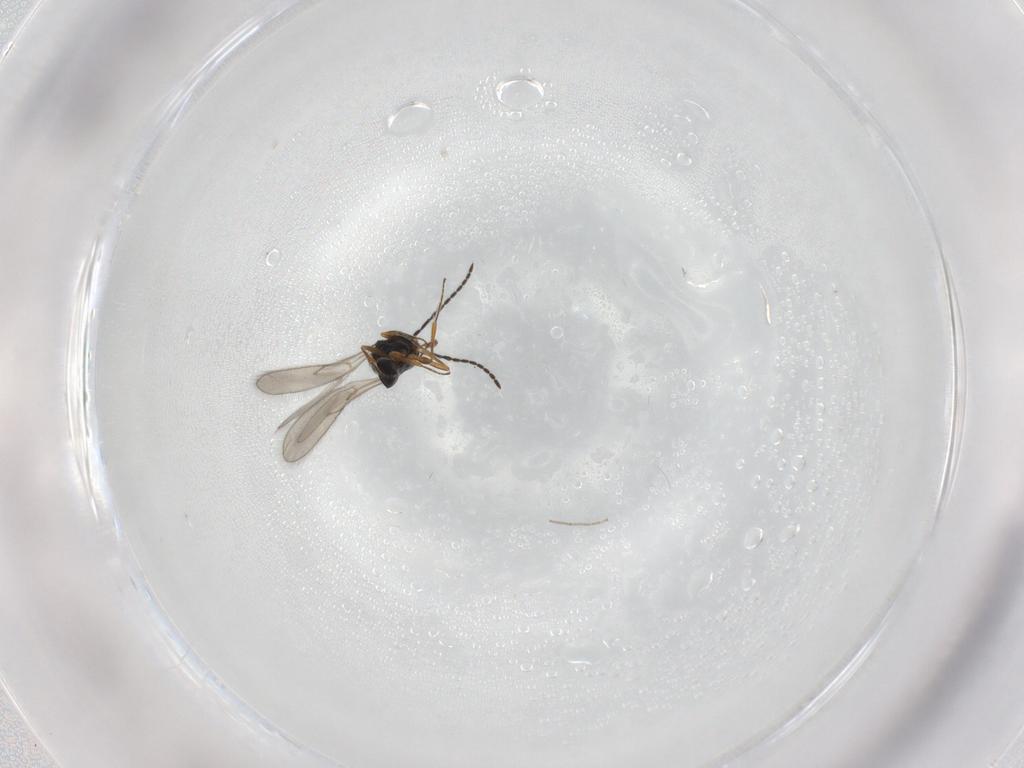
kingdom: Animalia
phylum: Arthropoda
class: Insecta
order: Hymenoptera
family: Scelionidae
